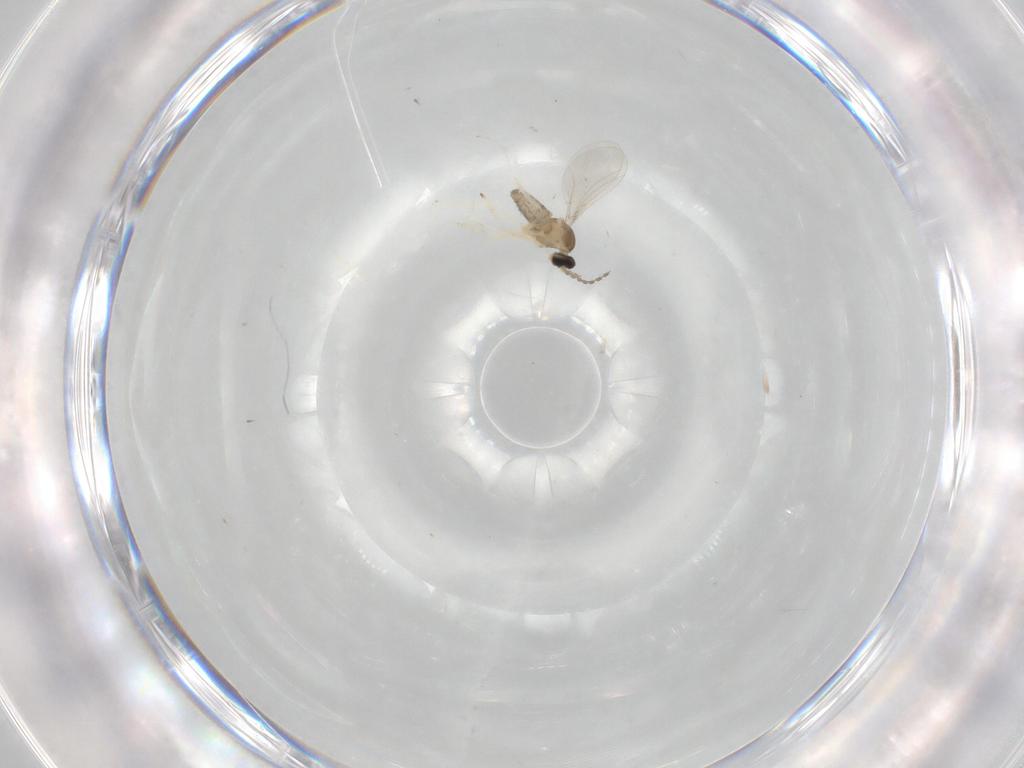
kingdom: Animalia
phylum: Arthropoda
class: Insecta
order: Diptera
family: Cecidomyiidae
